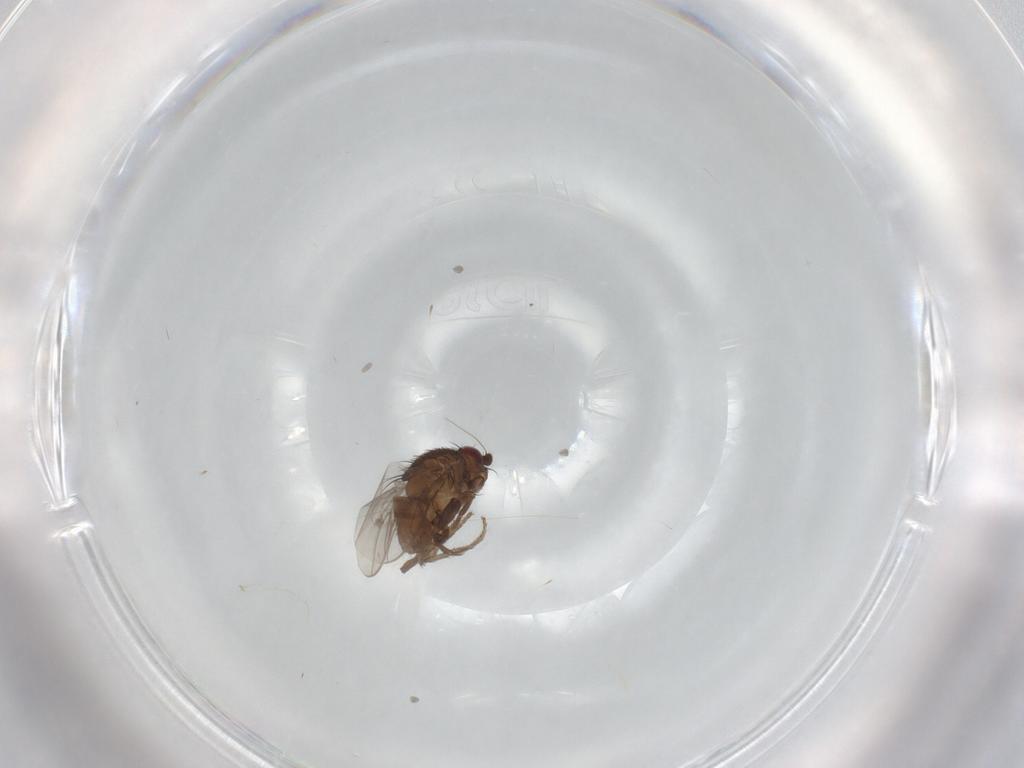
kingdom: Animalia
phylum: Arthropoda
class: Insecta
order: Diptera
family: Sphaeroceridae
